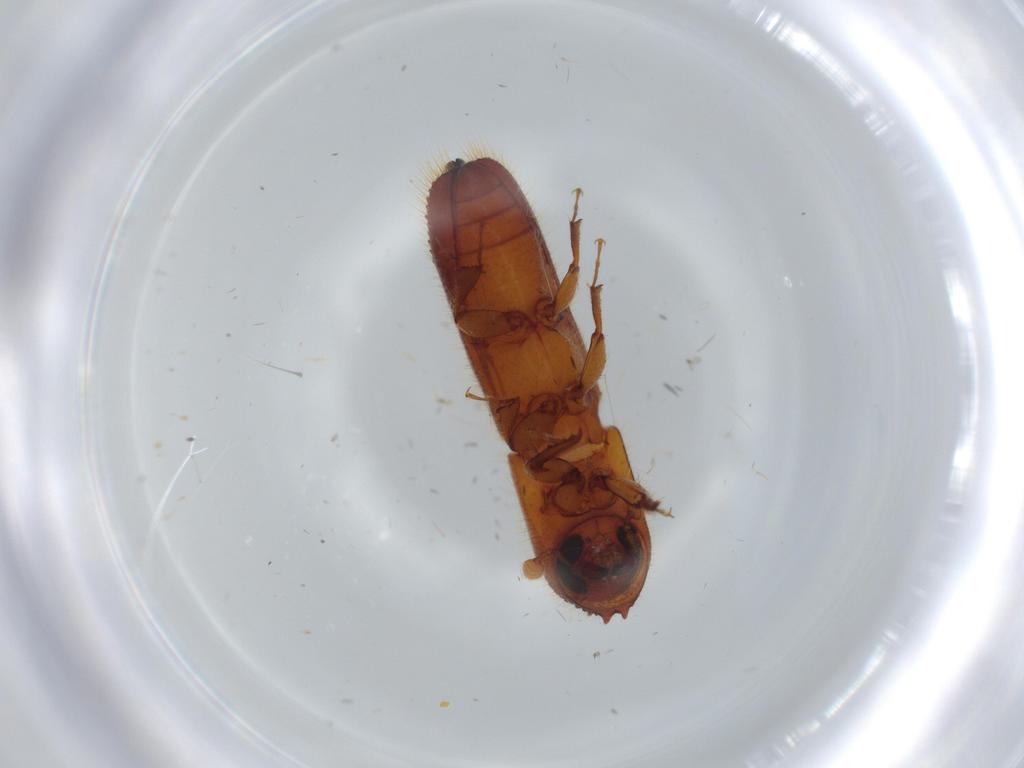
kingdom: Animalia
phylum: Arthropoda
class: Insecta
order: Coleoptera
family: Curculionidae
